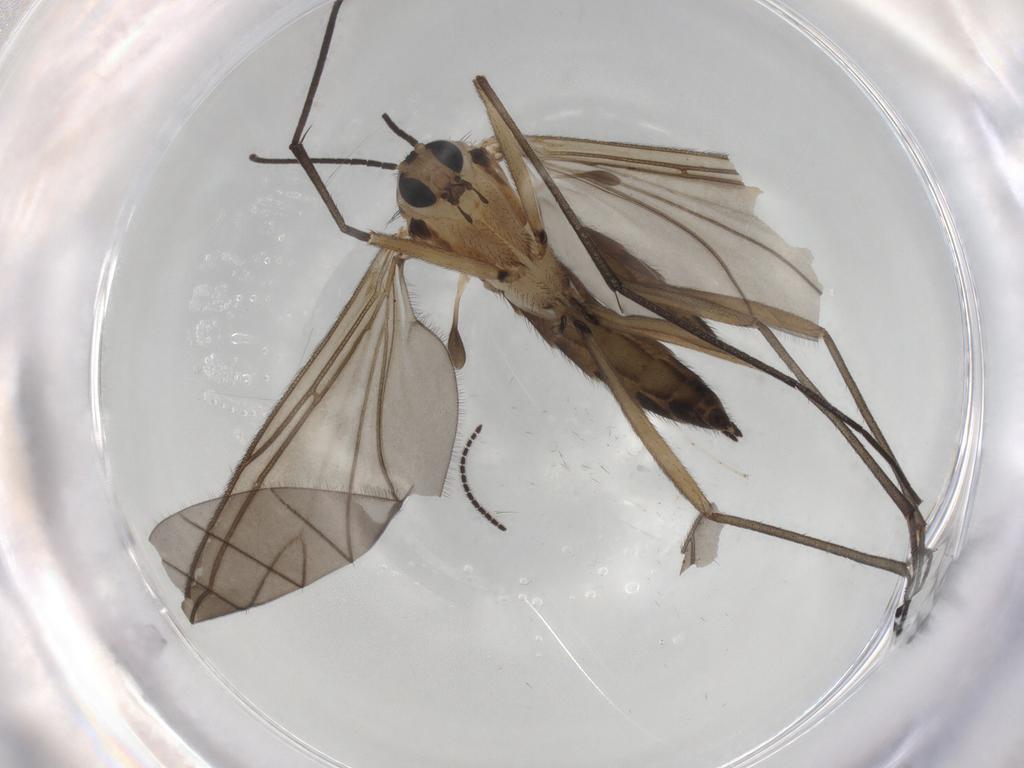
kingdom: Animalia
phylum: Arthropoda
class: Insecta
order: Diptera
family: Sciaridae
